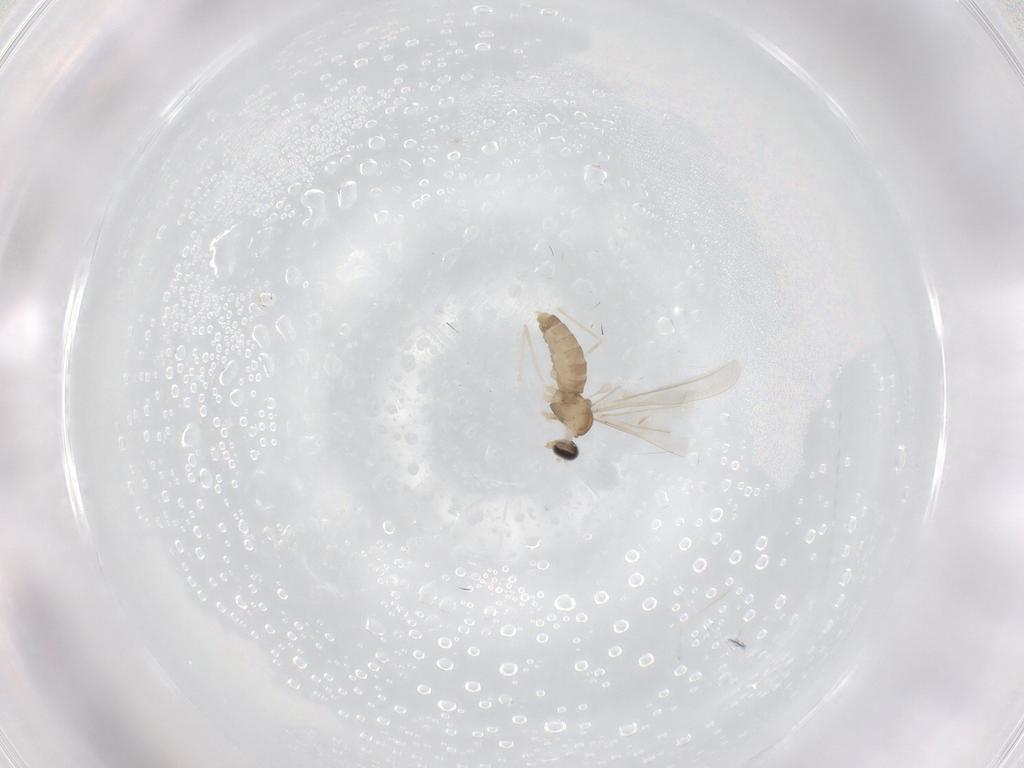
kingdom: Animalia
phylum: Arthropoda
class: Insecta
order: Diptera
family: Cecidomyiidae
